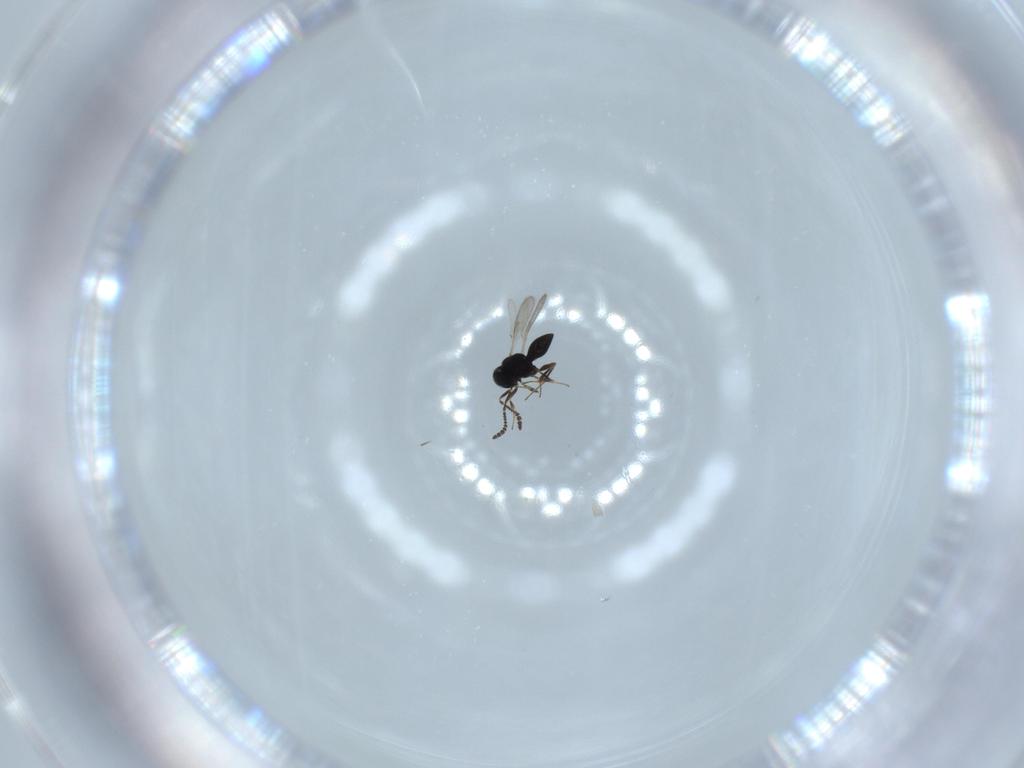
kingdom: Animalia
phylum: Arthropoda
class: Insecta
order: Hymenoptera
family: Scelionidae
